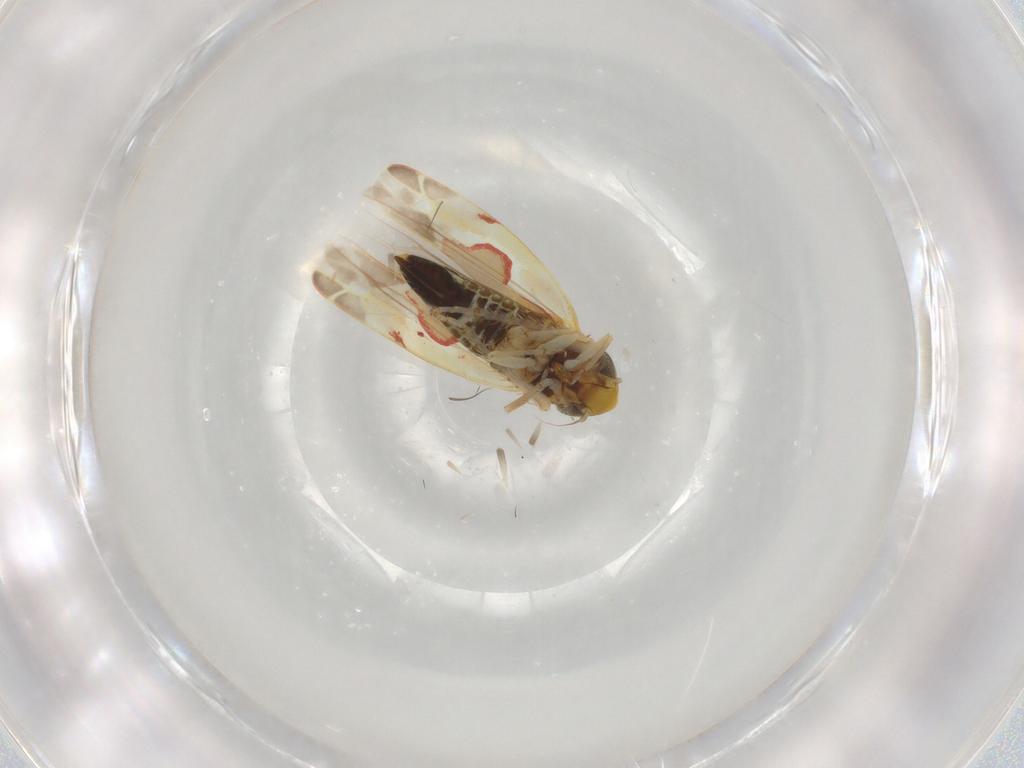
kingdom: Animalia
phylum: Arthropoda
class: Insecta
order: Hemiptera
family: Cicadellidae
